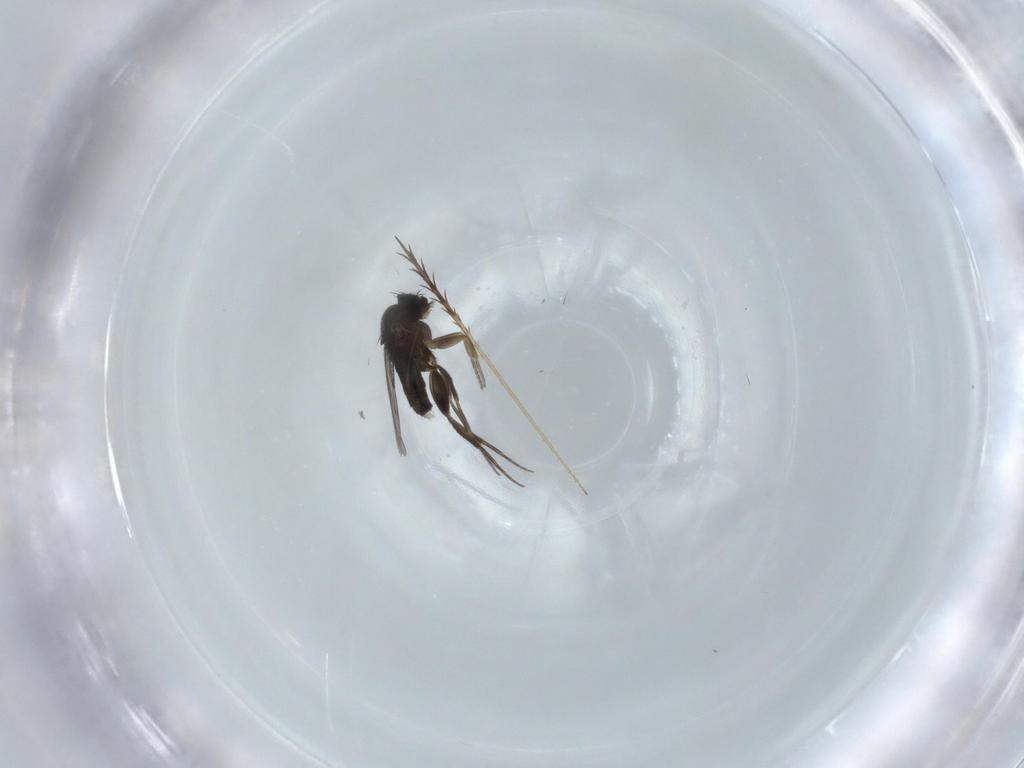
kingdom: Animalia
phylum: Arthropoda
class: Insecta
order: Diptera
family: Phoridae
